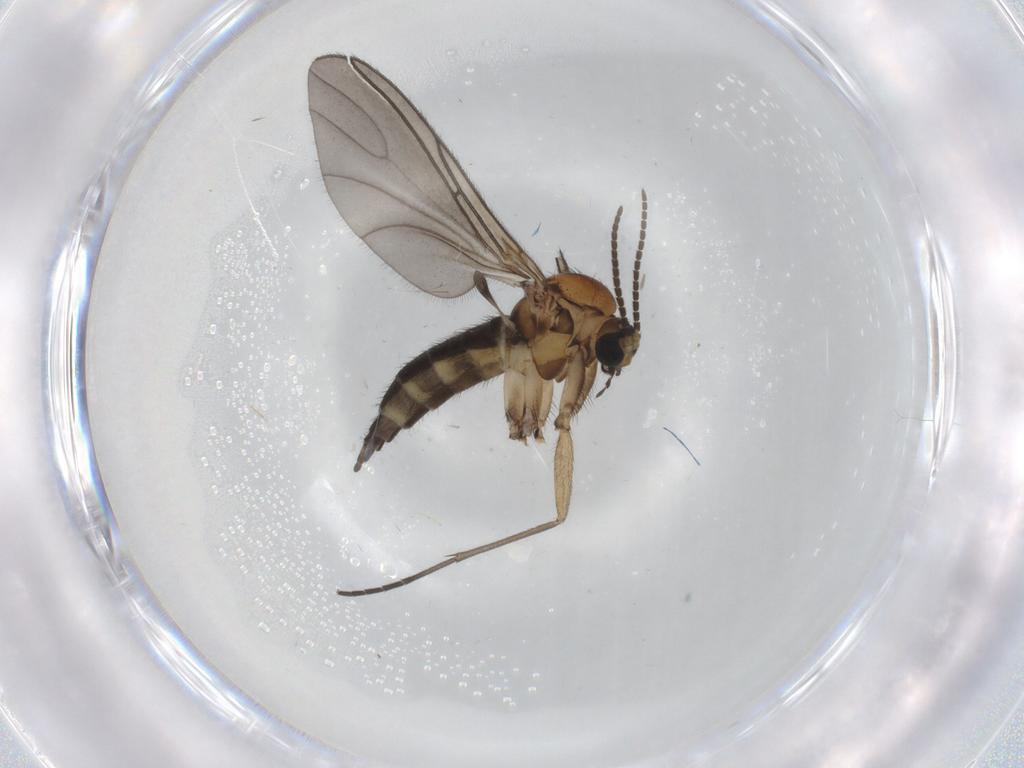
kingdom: Animalia
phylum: Arthropoda
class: Insecta
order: Diptera
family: Sciaridae
